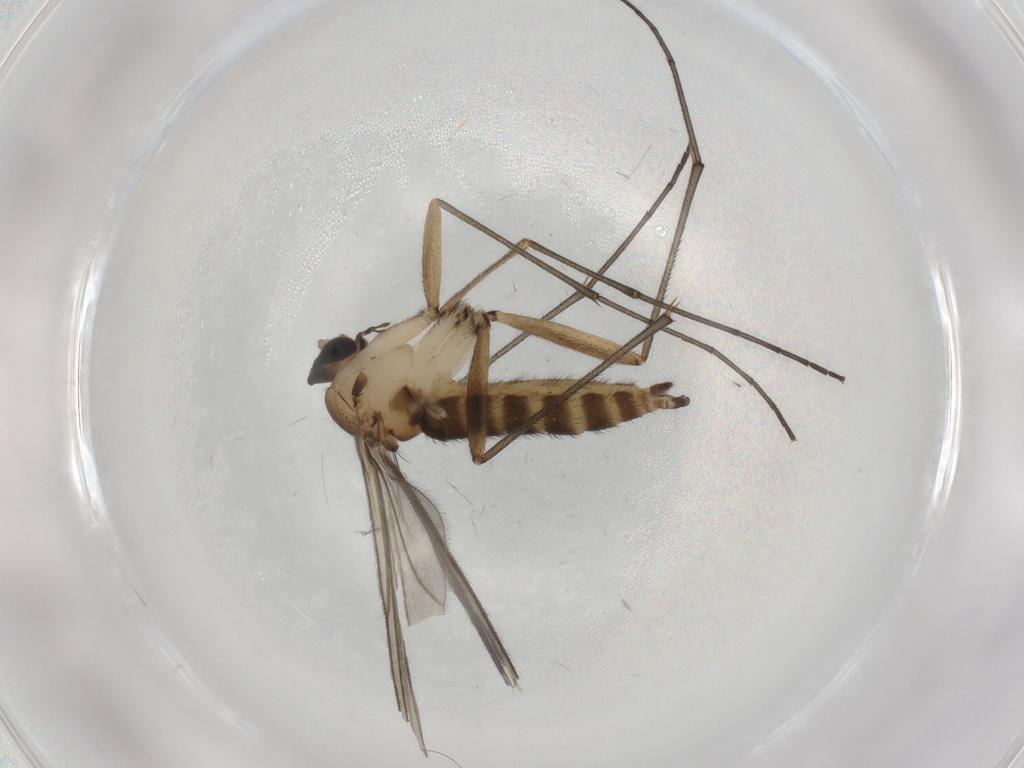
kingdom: Animalia
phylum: Arthropoda
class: Insecta
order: Diptera
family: Sciaridae
